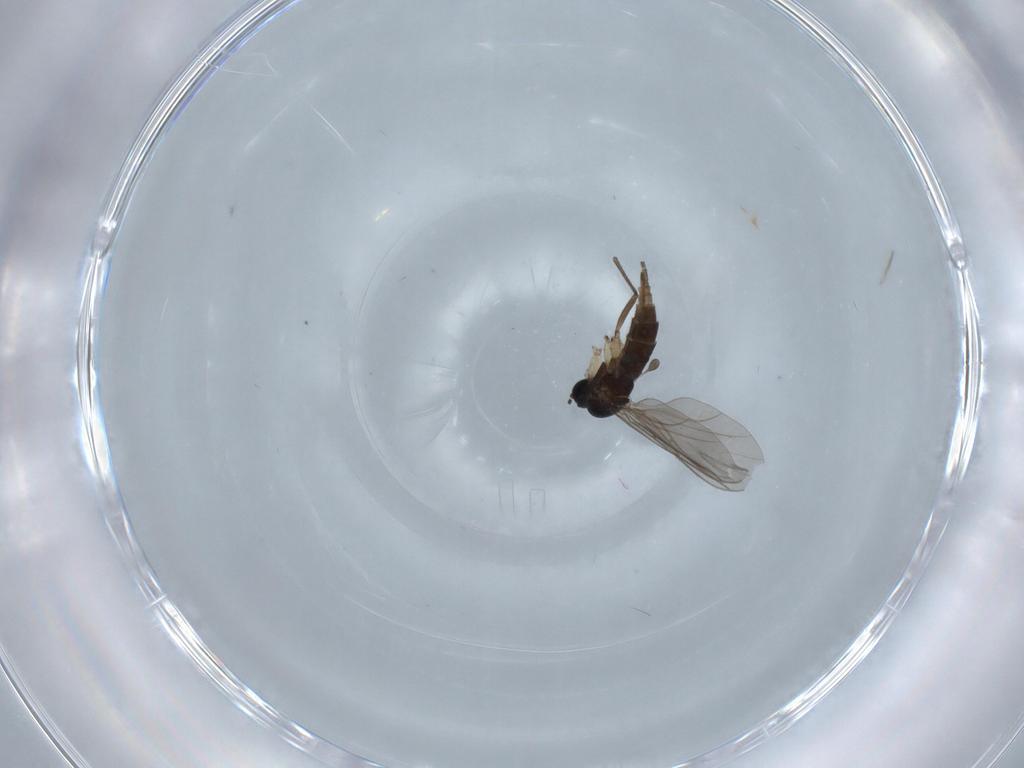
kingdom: Animalia
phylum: Arthropoda
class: Insecta
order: Diptera
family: Sciaridae
